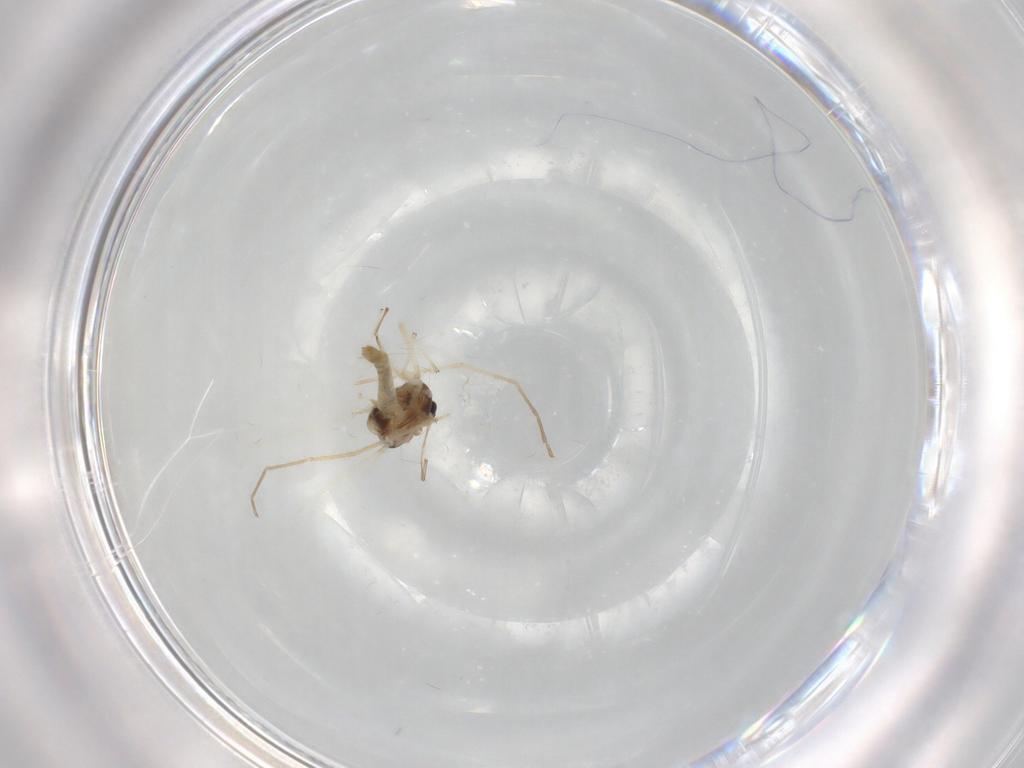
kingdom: Animalia
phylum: Arthropoda
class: Insecta
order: Diptera
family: Chironomidae
